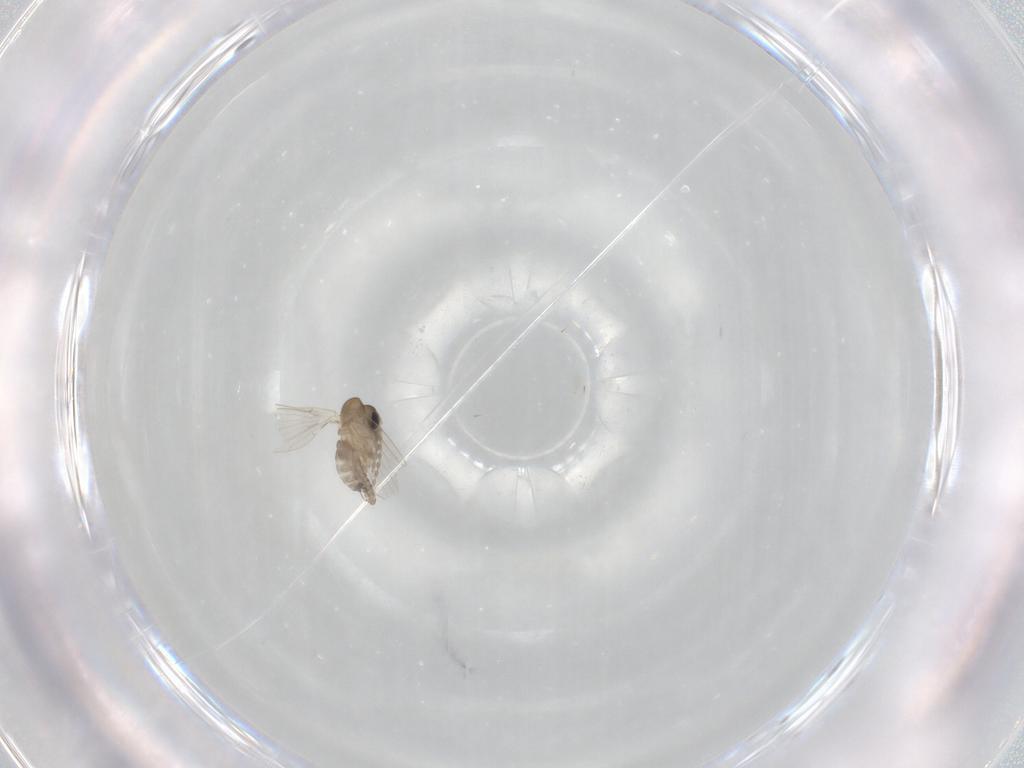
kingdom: Animalia
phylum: Arthropoda
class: Insecta
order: Diptera
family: Psychodidae
